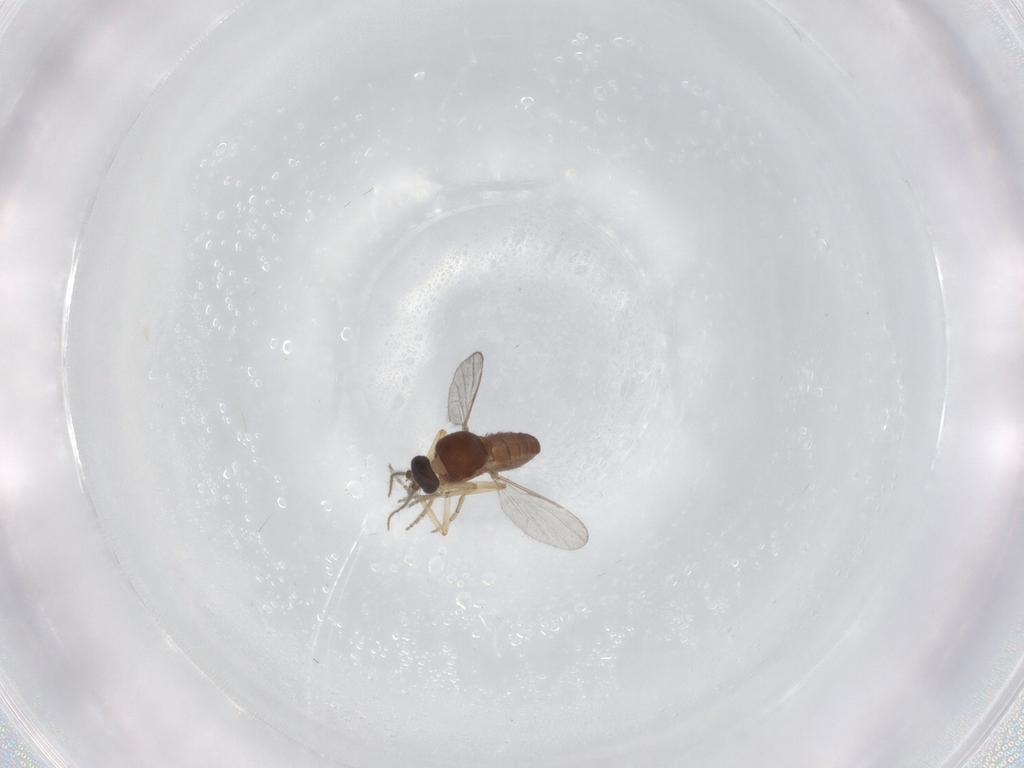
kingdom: Animalia
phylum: Arthropoda
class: Insecta
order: Diptera
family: Ceratopogonidae
